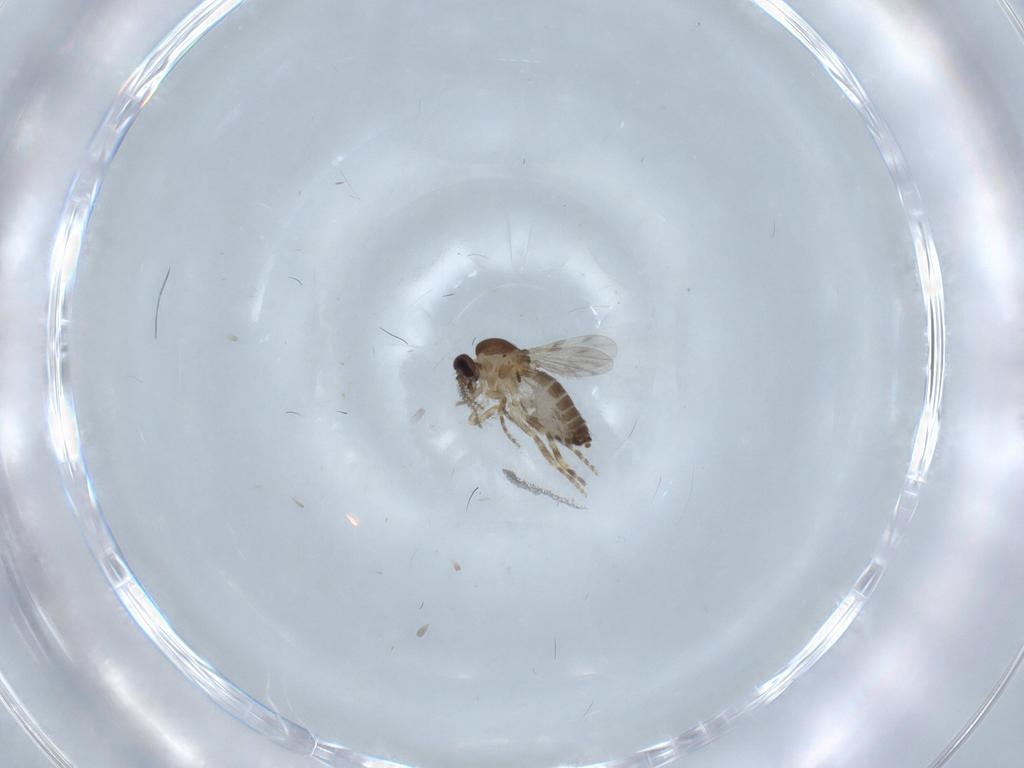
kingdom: Animalia
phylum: Arthropoda
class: Insecta
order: Diptera
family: Ceratopogonidae
